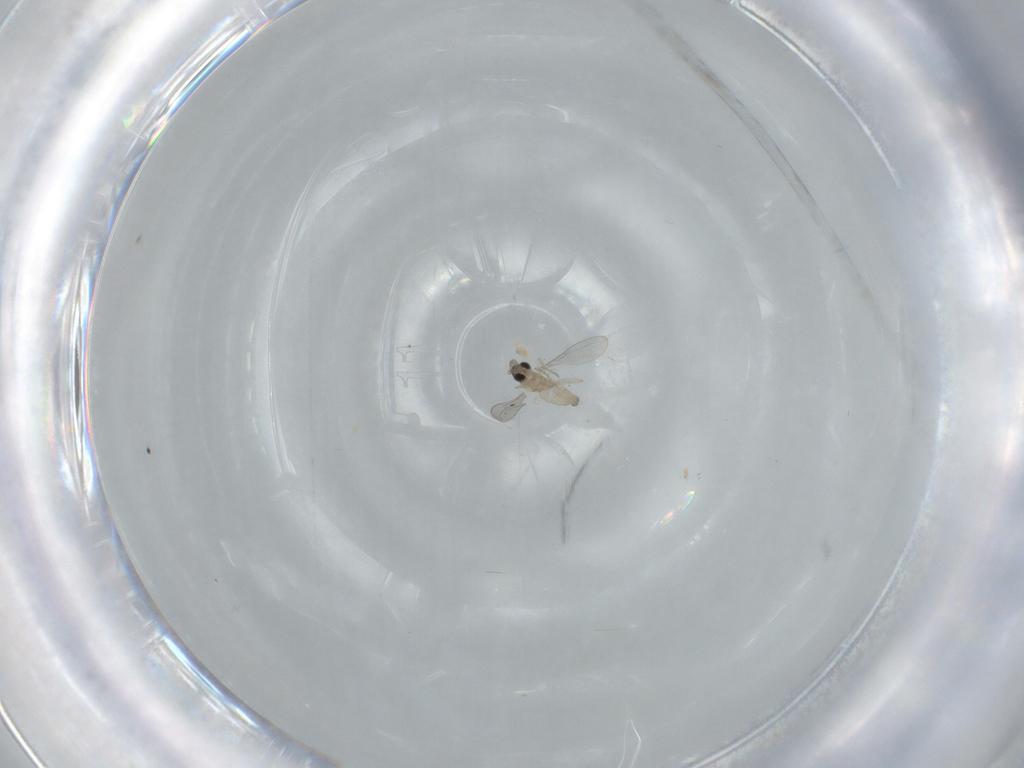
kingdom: Animalia
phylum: Arthropoda
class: Insecta
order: Diptera
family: Cecidomyiidae
